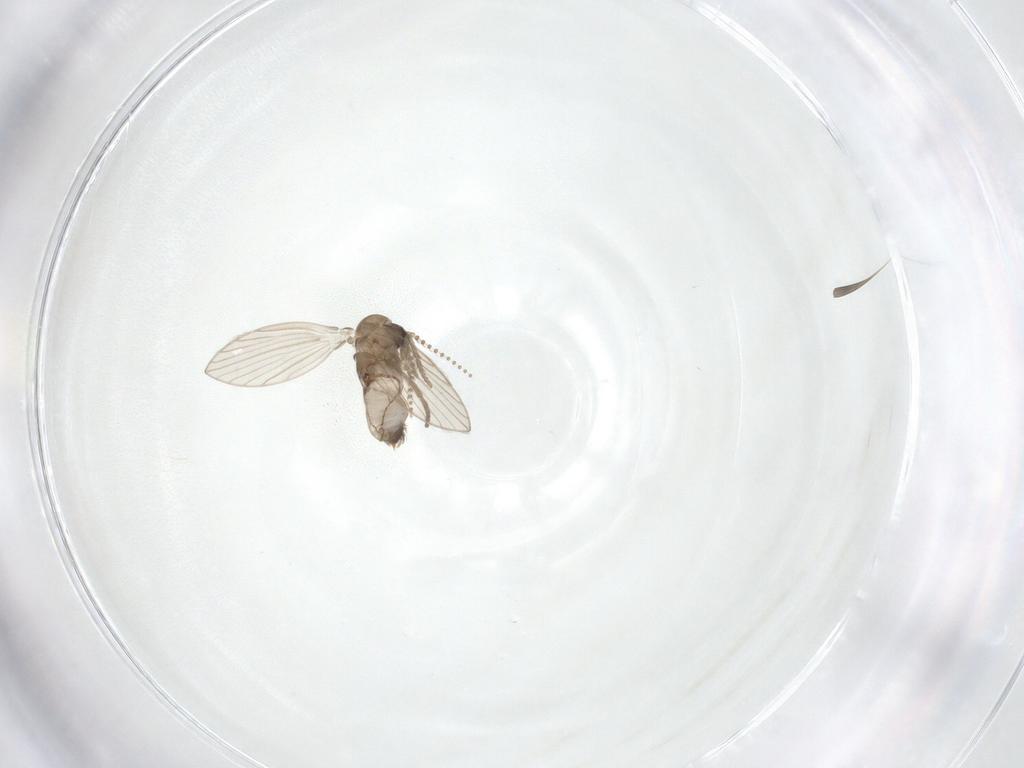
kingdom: Animalia
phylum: Arthropoda
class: Insecta
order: Diptera
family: Psychodidae
